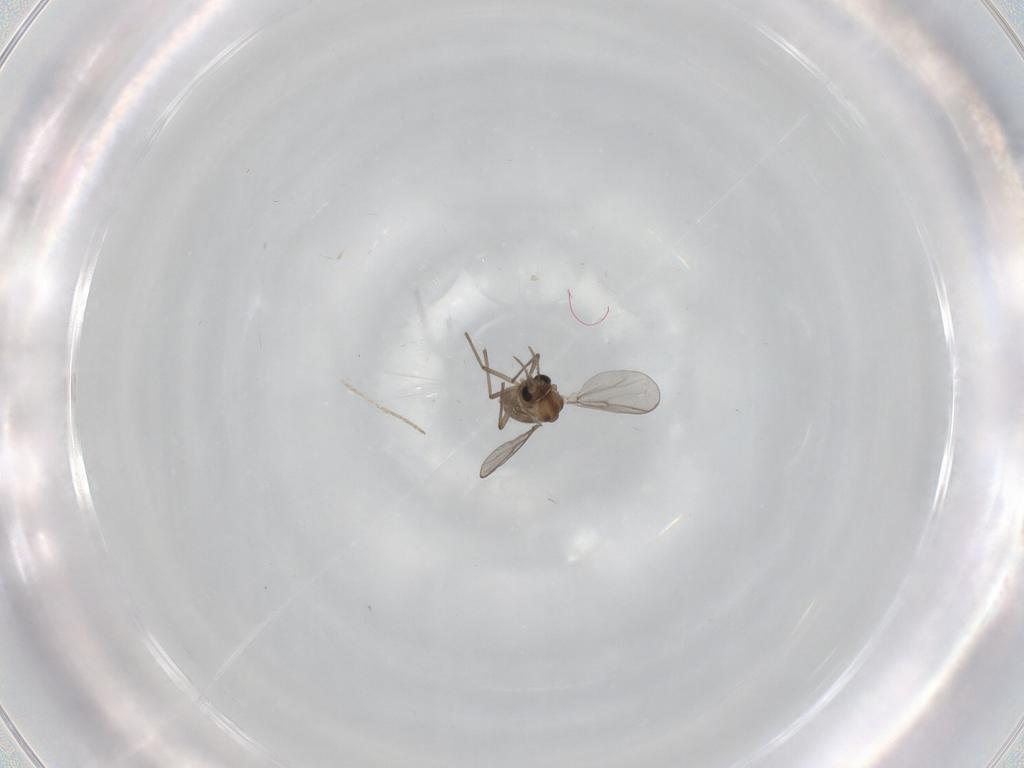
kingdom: Animalia
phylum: Arthropoda
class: Insecta
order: Diptera
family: Chironomidae
